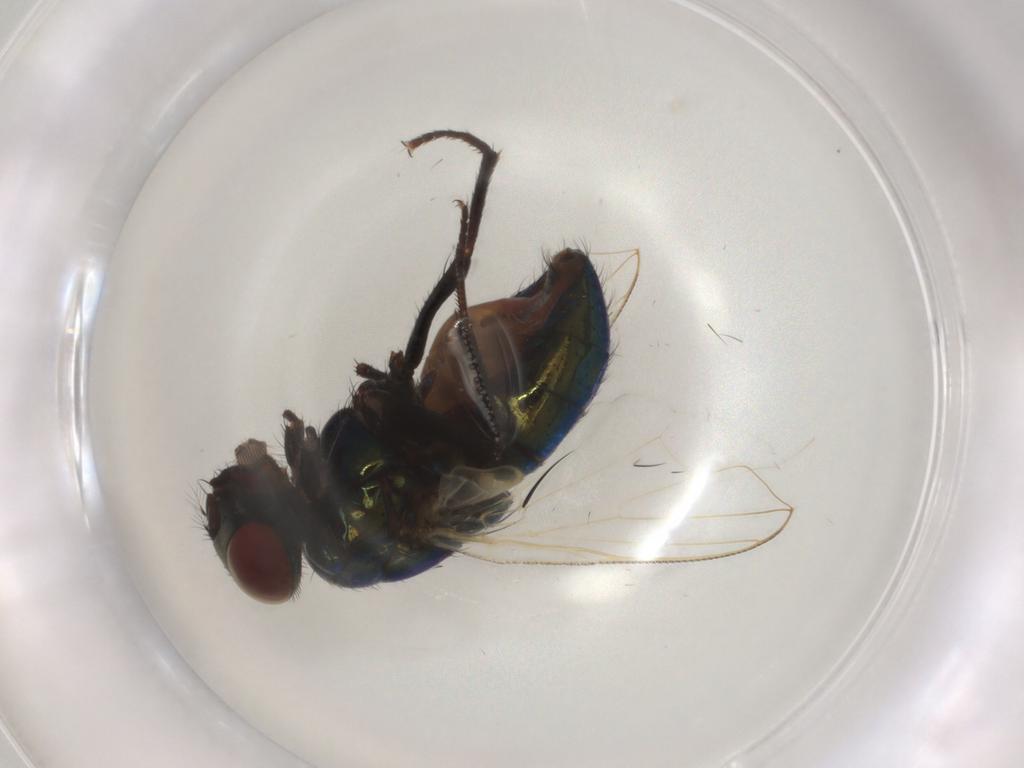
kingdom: Animalia
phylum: Arthropoda
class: Insecta
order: Diptera
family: Muscidae
